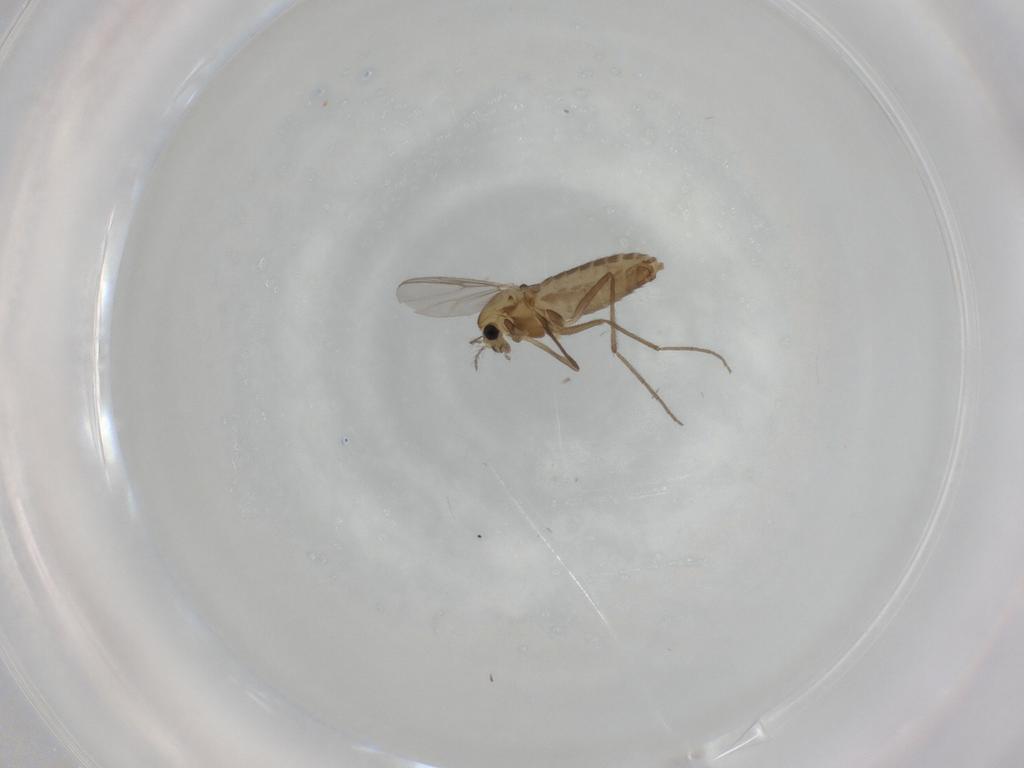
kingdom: Animalia
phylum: Arthropoda
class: Insecta
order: Diptera
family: Chironomidae
